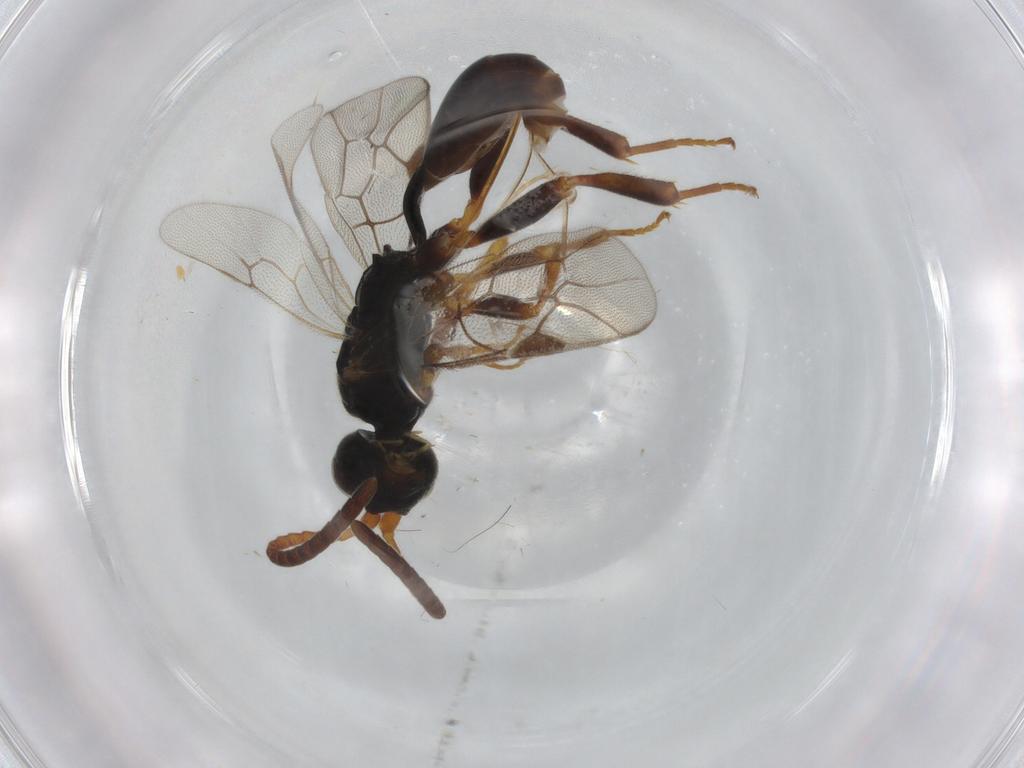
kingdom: Animalia
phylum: Arthropoda
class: Insecta
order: Hymenoptera
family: Ichneumonidae
